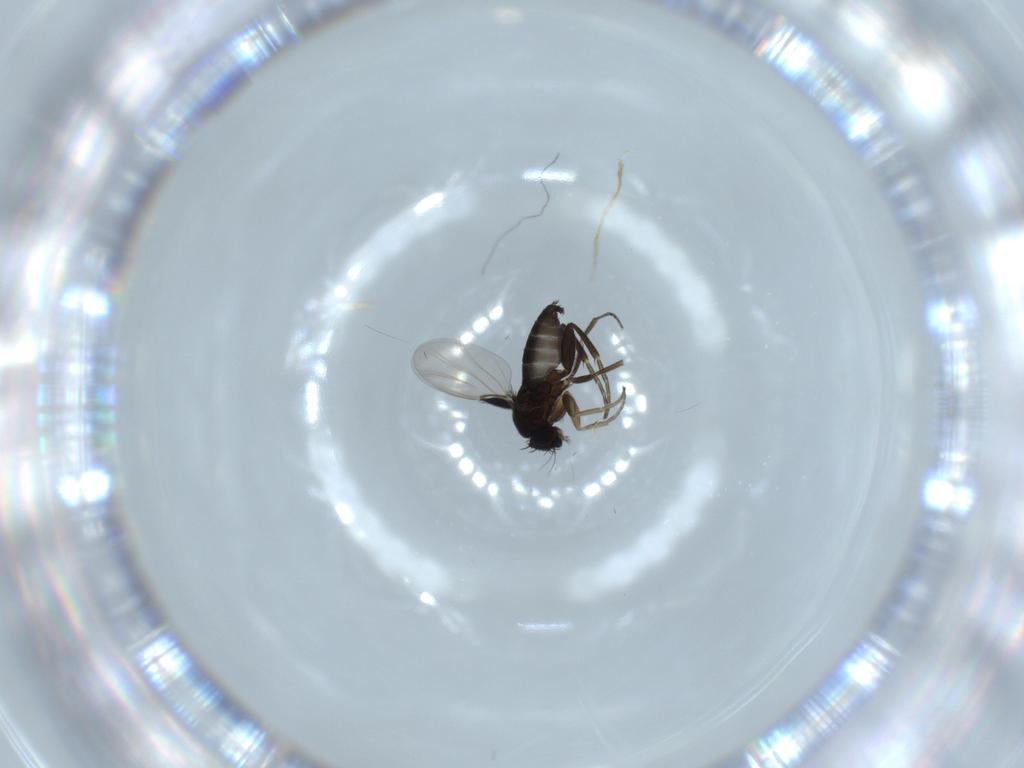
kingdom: Animalia
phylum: Arthropoda
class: Insecta
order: Diptera
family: Phoridae
